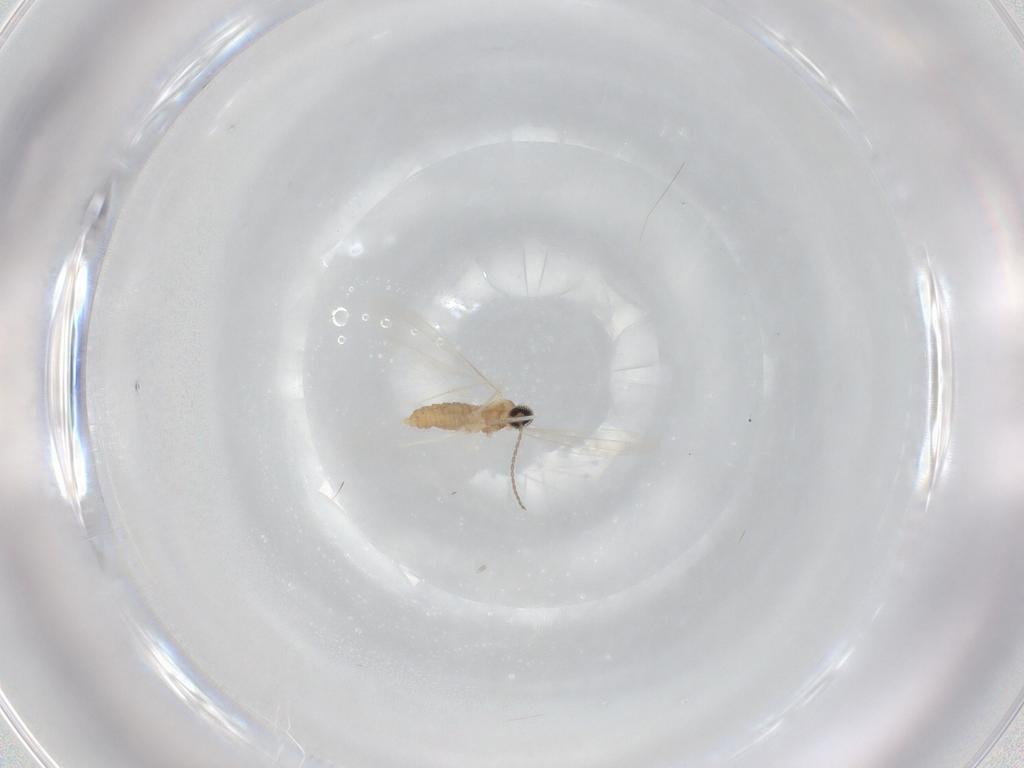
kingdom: Animalia
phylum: Arthropoda
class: Insecta
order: Diptera
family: Cecidomyiidae
